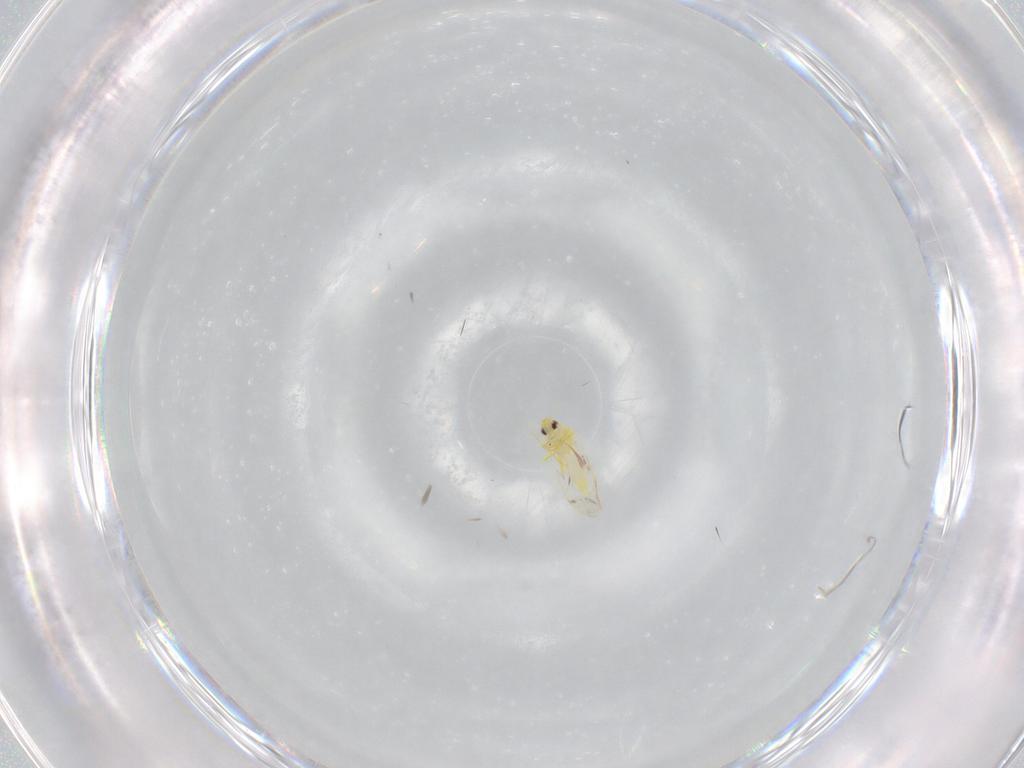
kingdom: Animalia
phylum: Arthropoda
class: Insecta
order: Hemiptera
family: Aleyrodidae
